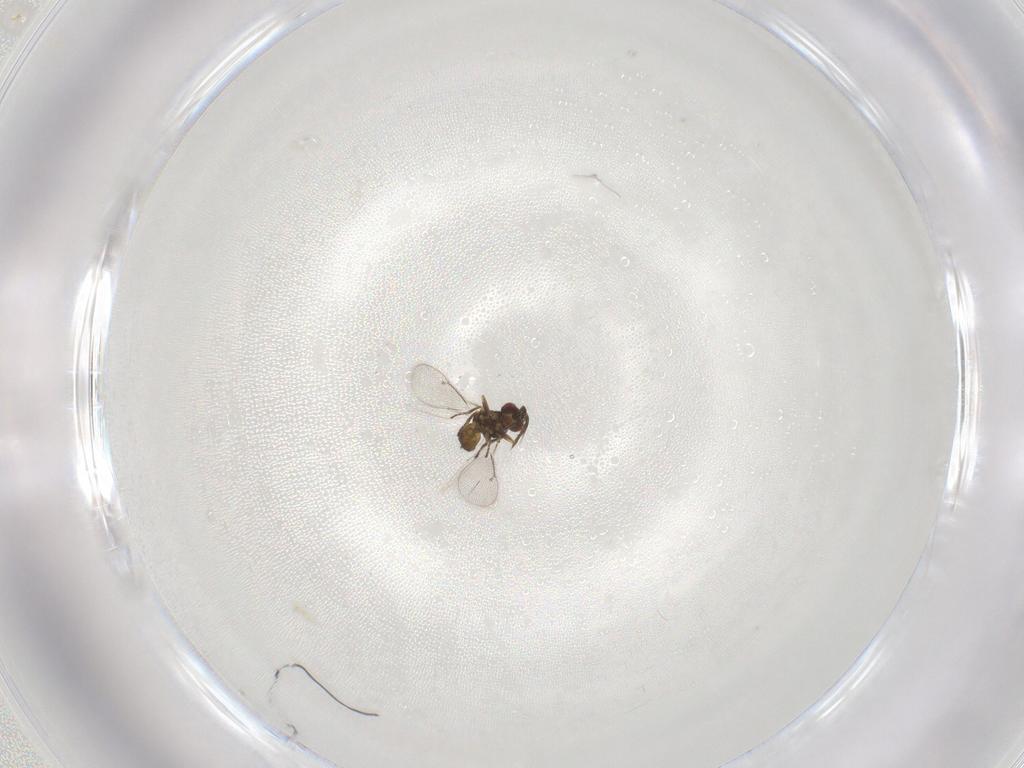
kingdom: Animalia
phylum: Arthropoda
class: Insecta
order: Hymenoptera
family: Eulophidae
